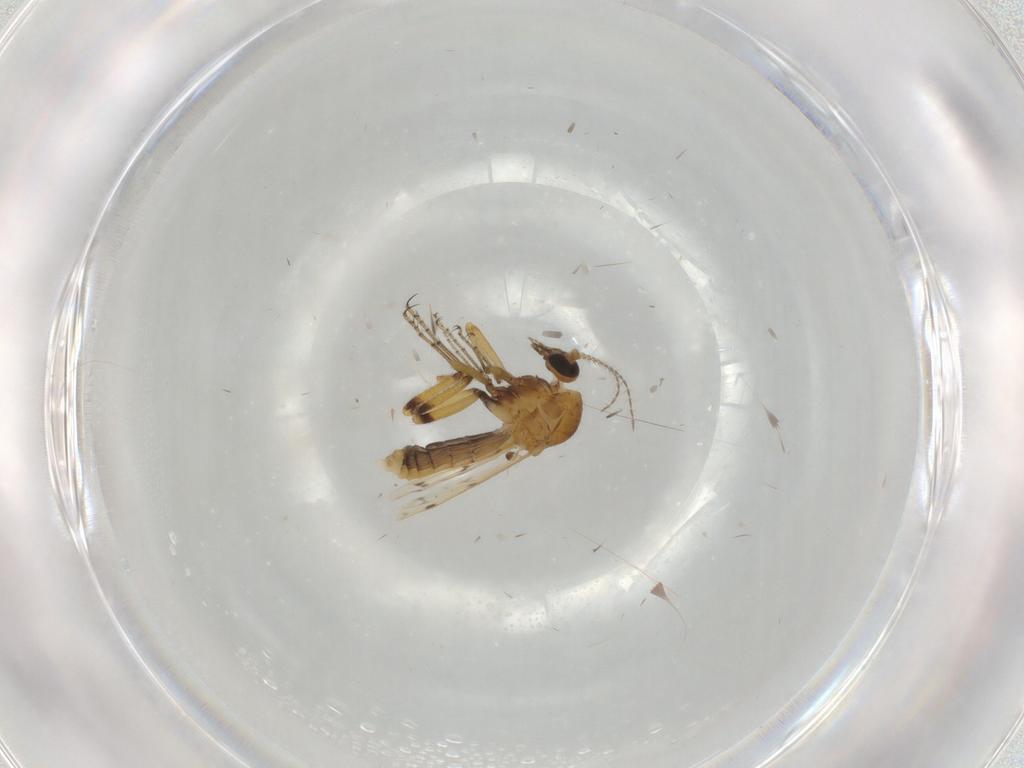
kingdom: Animalia
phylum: Arthropoda
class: Insecta
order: Diptera
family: Ceratopogonidae
